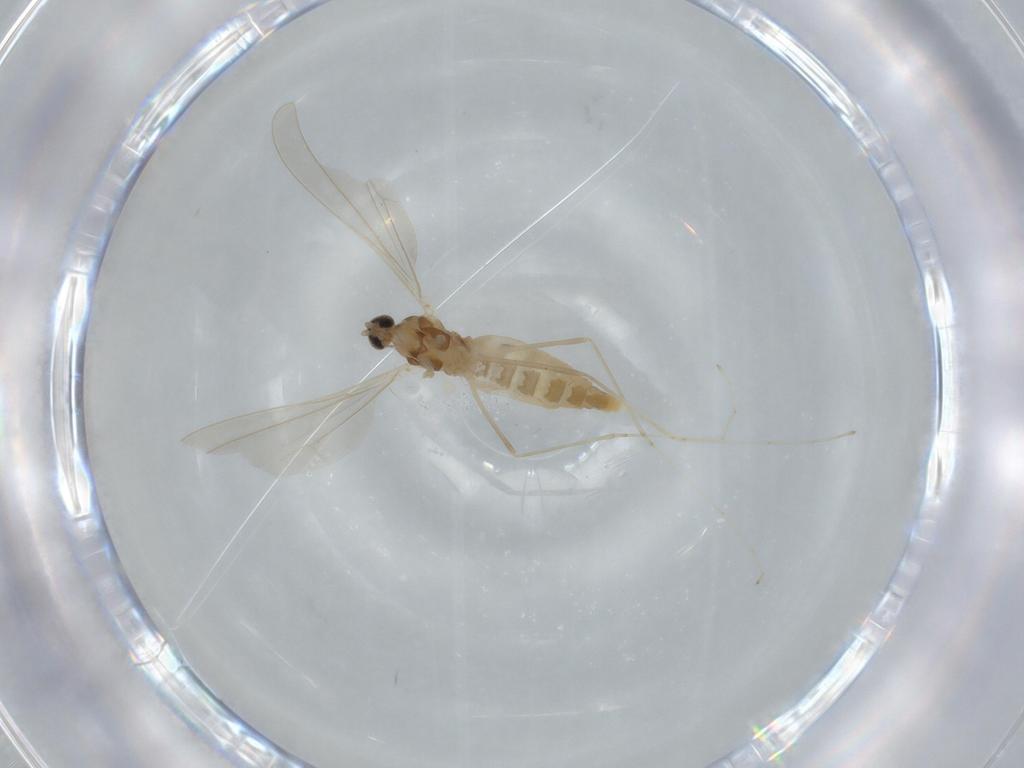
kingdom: Animalia
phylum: Arthropoda
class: Insecta
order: Diptera
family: Cecidomyiidae
